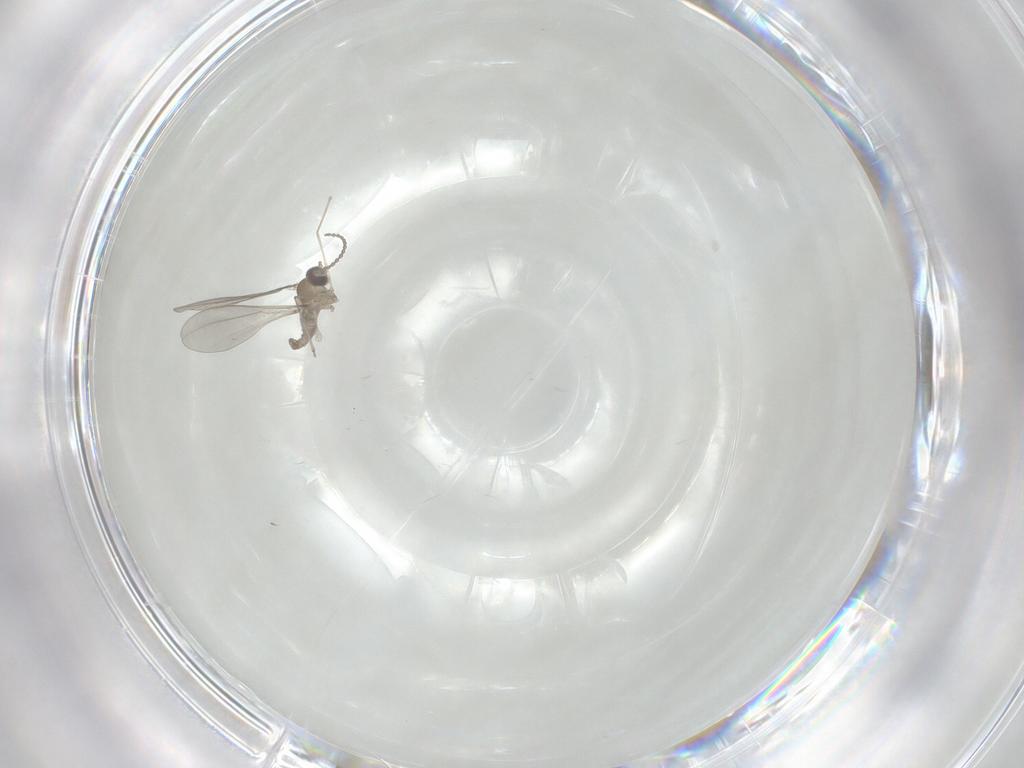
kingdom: Animalia
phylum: Arthropoda
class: Insecta
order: Diptera
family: Cecidomyiidae
